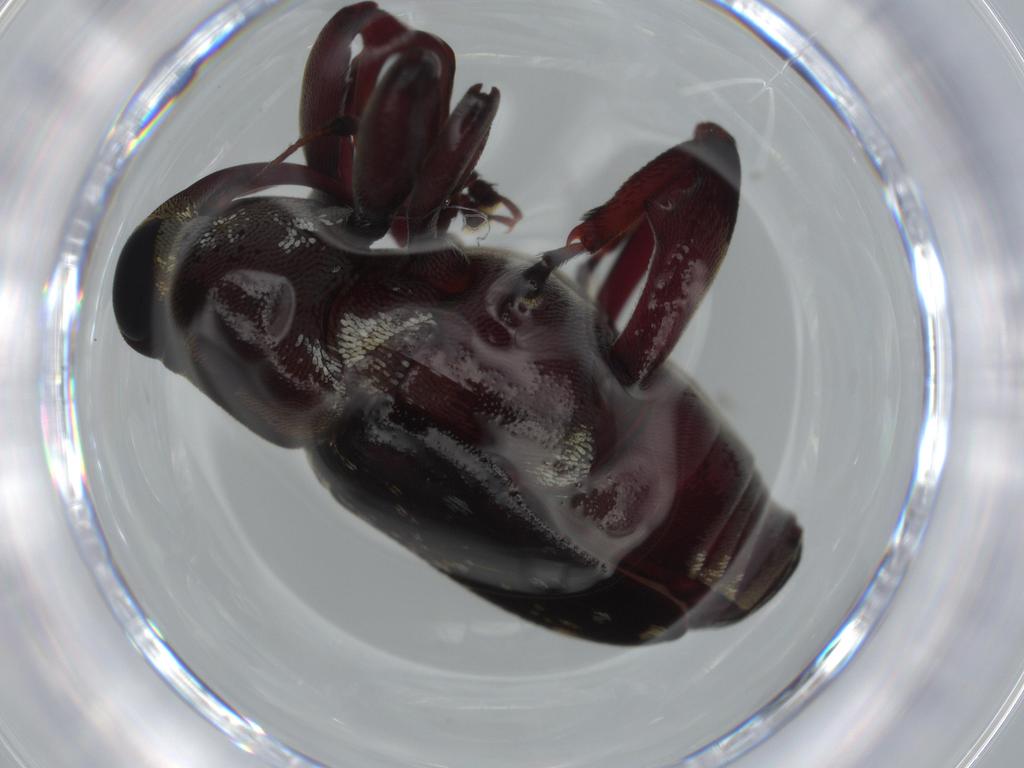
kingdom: Animalia
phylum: Arthropoda
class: Insecta
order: Coleoptera
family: Curculionidae
